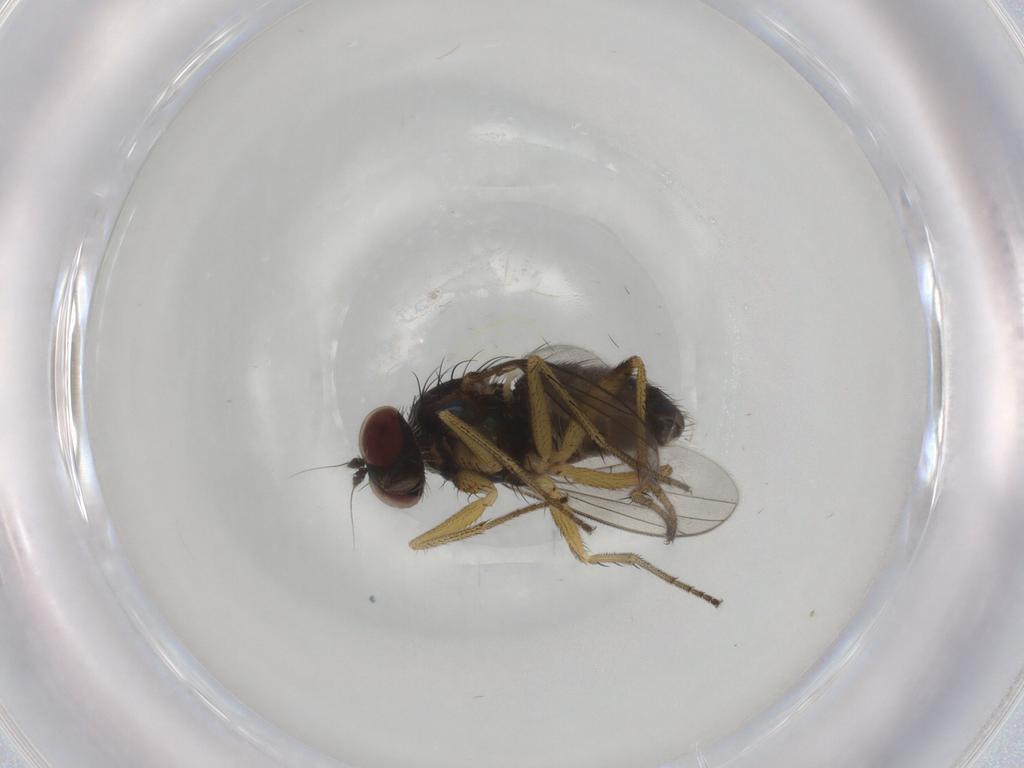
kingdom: Animalia
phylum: Arthropoda
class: Insecta
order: Diptera
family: Dolichopodidae
